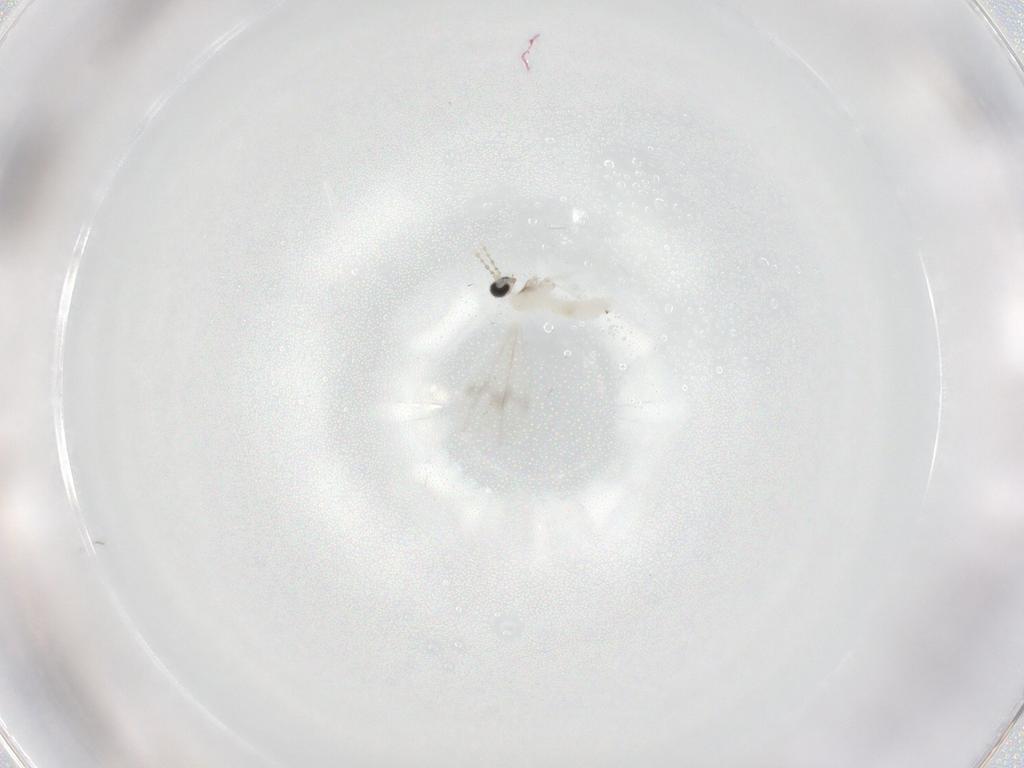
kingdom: Animalia
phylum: Arthropoda
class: Insecta
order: Diptera
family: Cecidomyiidae
